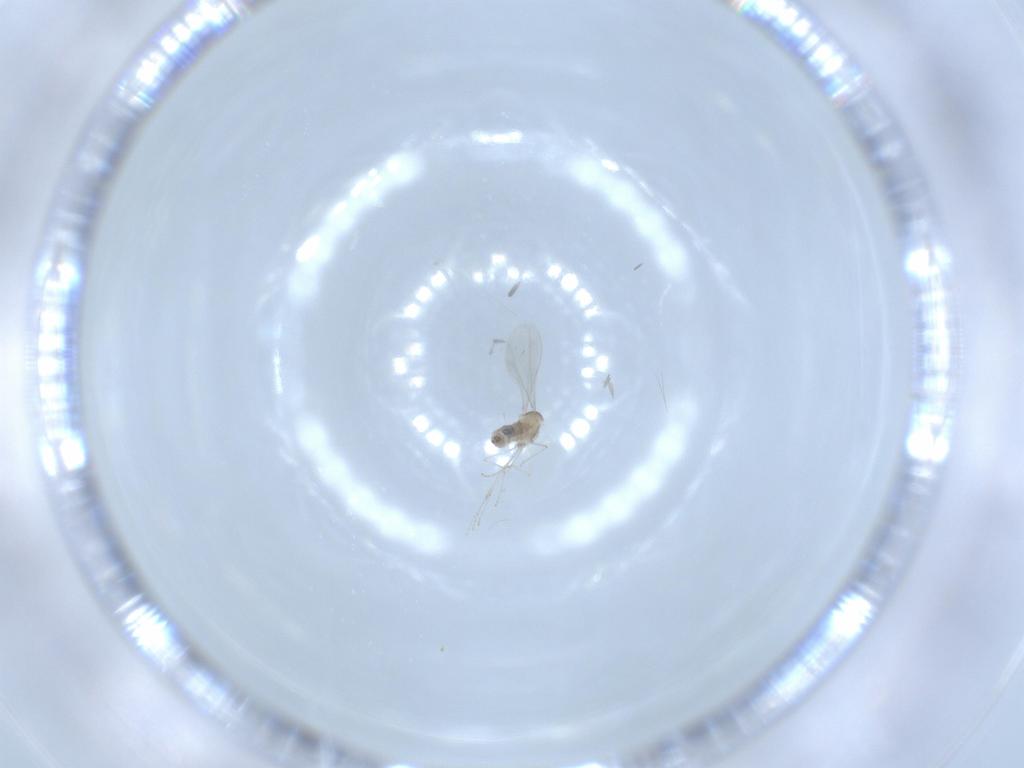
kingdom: Animalia
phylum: Arthropoda
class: Insecta
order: Diptera
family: Cecidomyiidae
